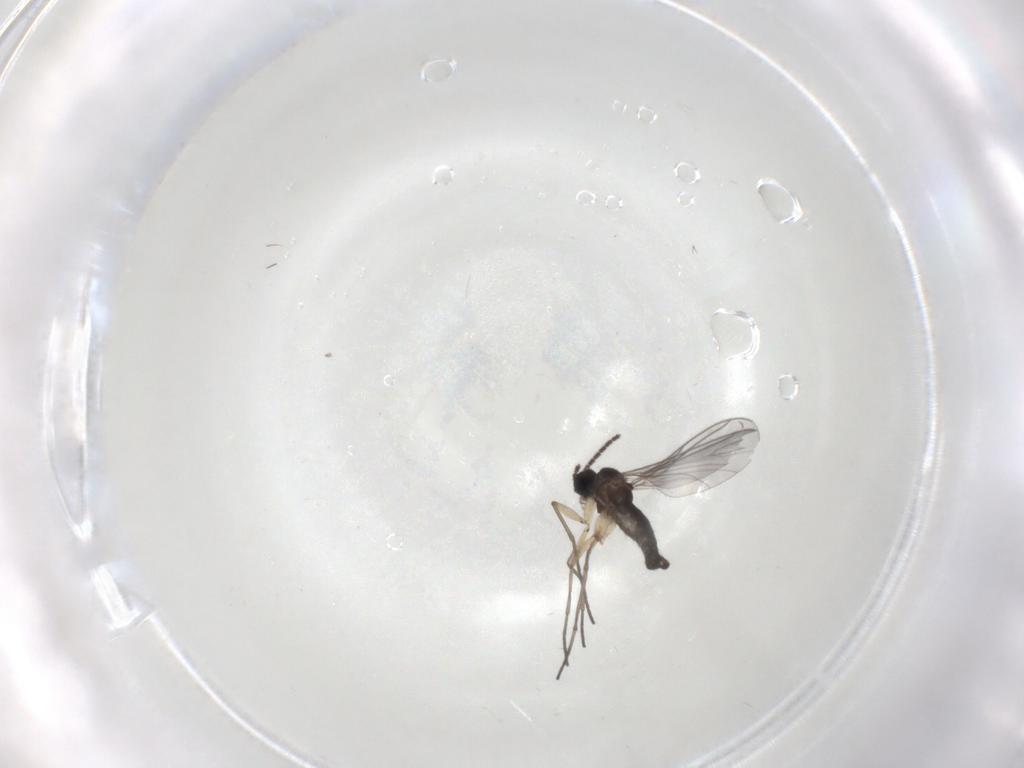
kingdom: Animalia
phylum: Arthropoda
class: Insecta
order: Diptera
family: Sciaridae
